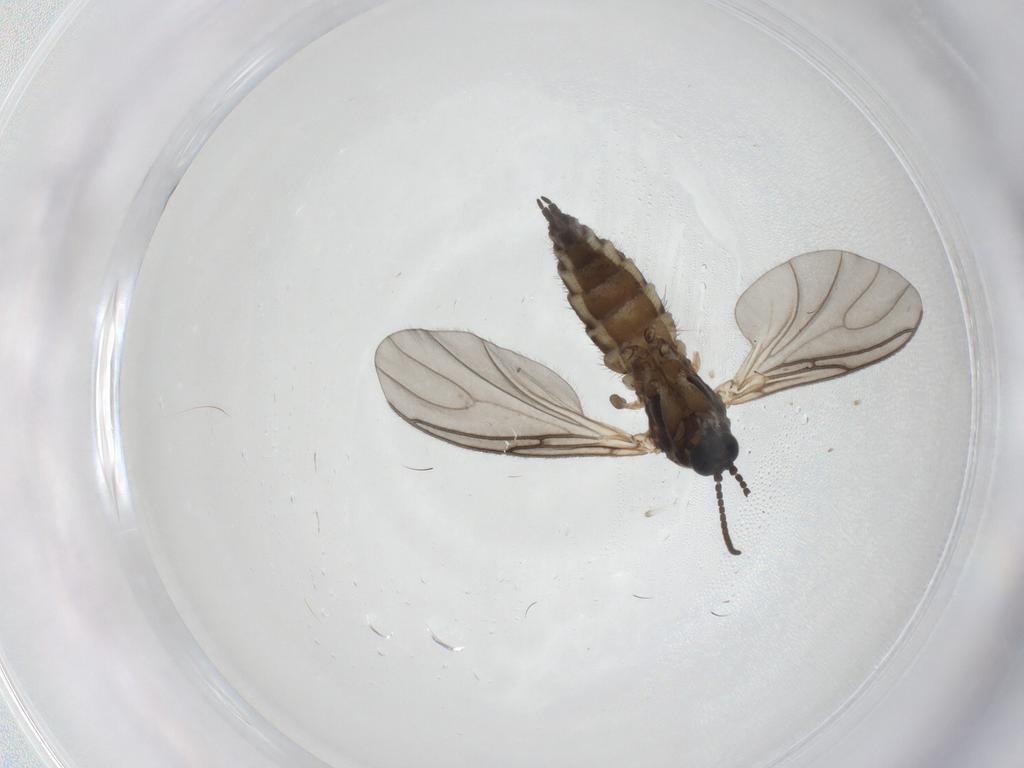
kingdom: Animalia
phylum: Arthropoda
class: Insecta
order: Diptera
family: Sciaridae
